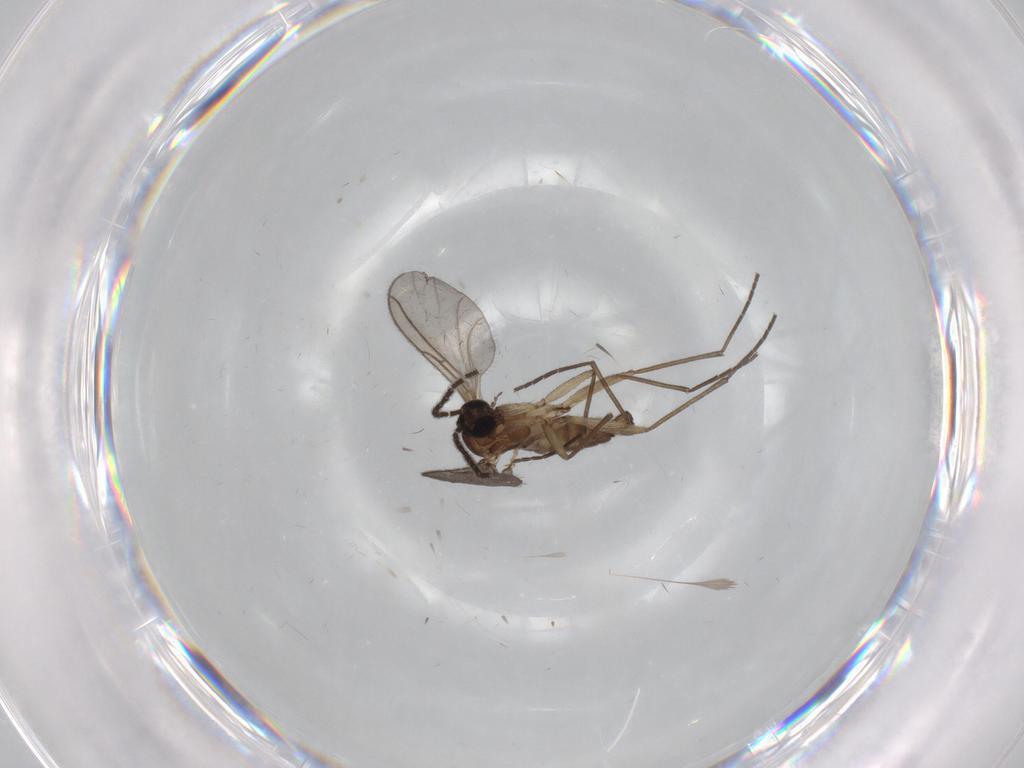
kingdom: Animalia
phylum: Arthropoda
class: Insecta
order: Diptera
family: Sciaridae
